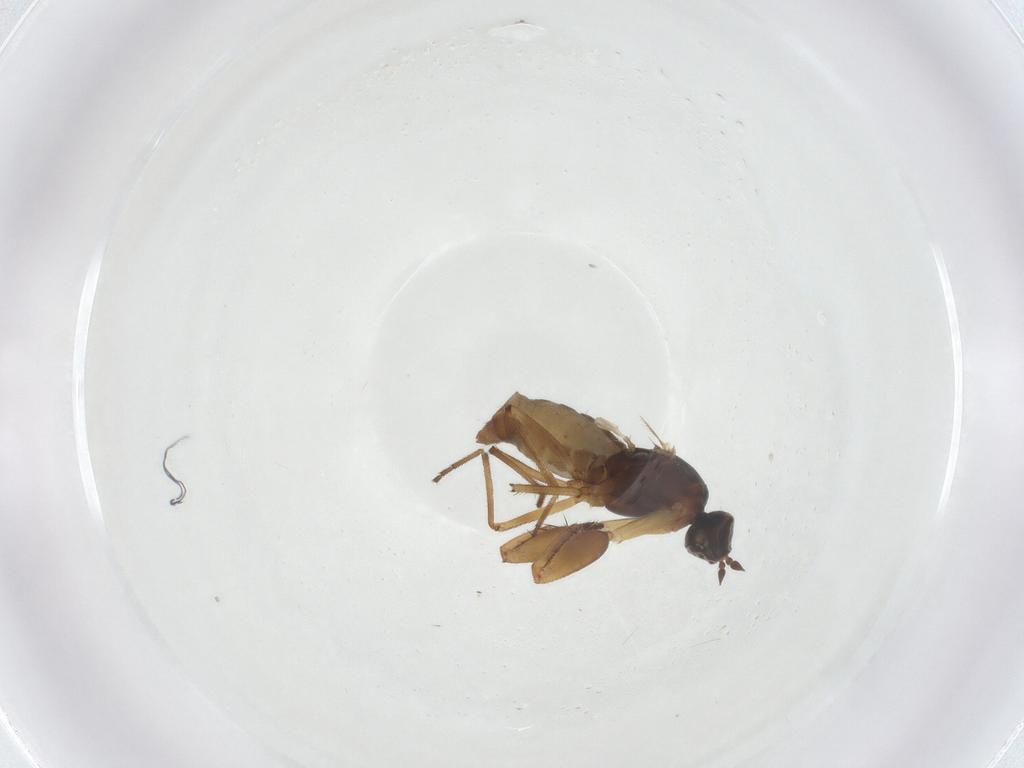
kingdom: Animalia
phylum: Arthropoda
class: Insecta
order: Diptera
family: Empididae
